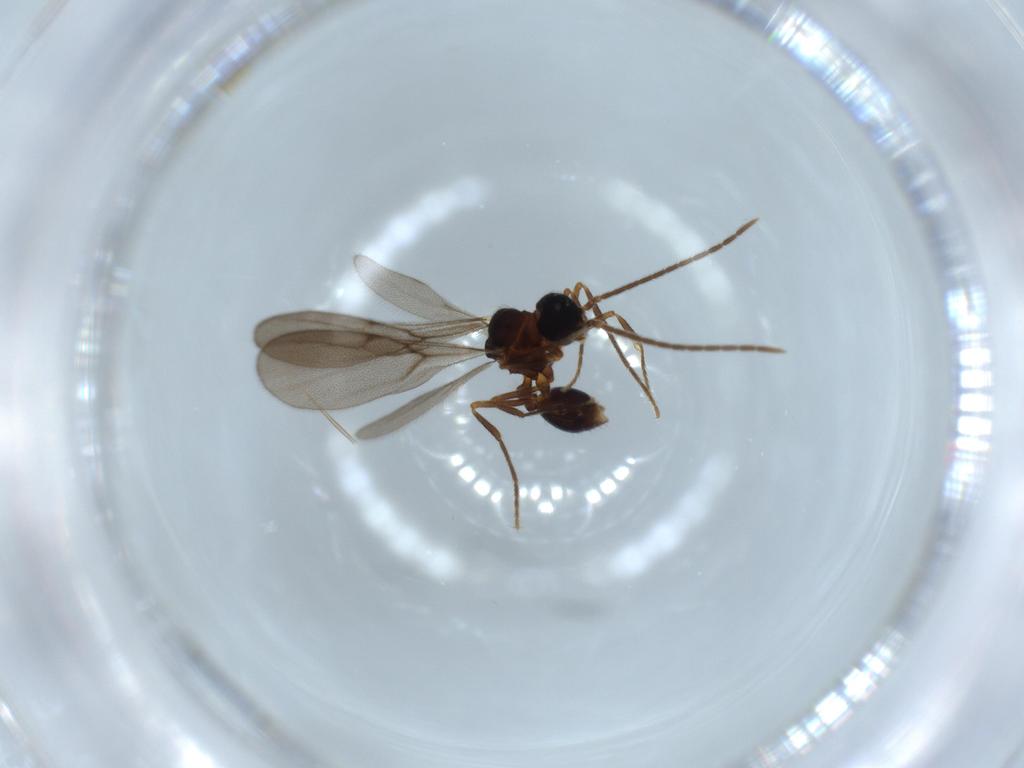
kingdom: Animalia
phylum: Arthropoda
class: Insecta
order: Hymenoptera
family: Formicidae
